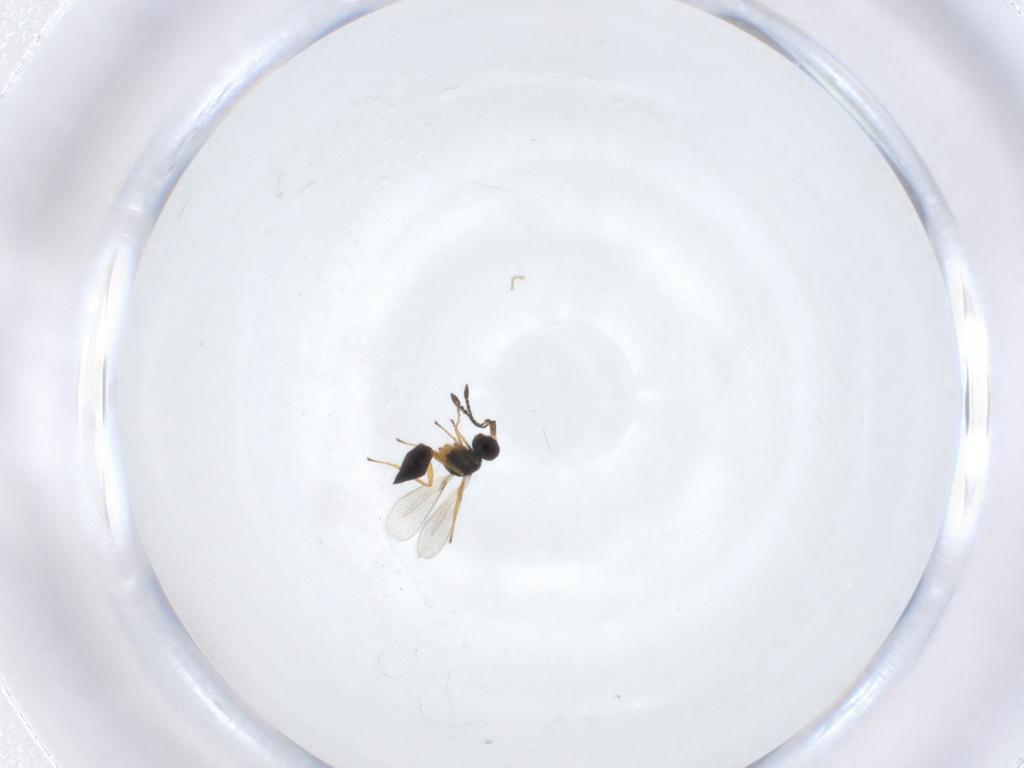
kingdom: Animalia
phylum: Arthropoda
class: Insecta
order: Hymenoptera
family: Mymaridae
